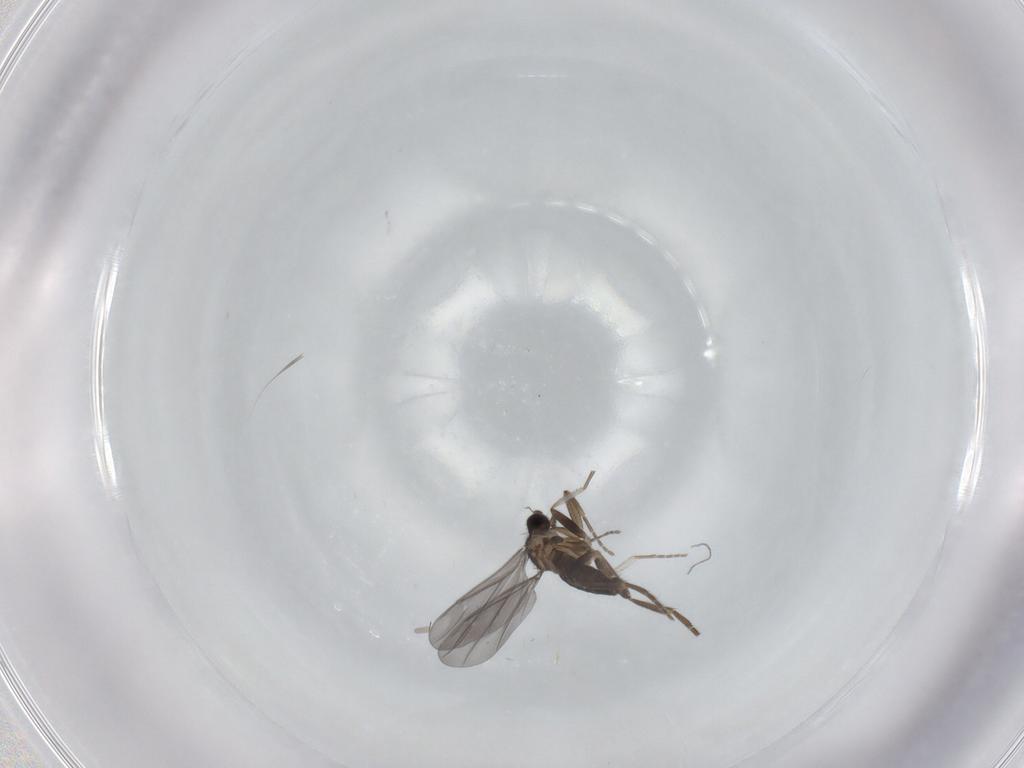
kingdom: Animalia
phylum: Arthropoda
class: Insecta
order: Diptera
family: Phoridae
